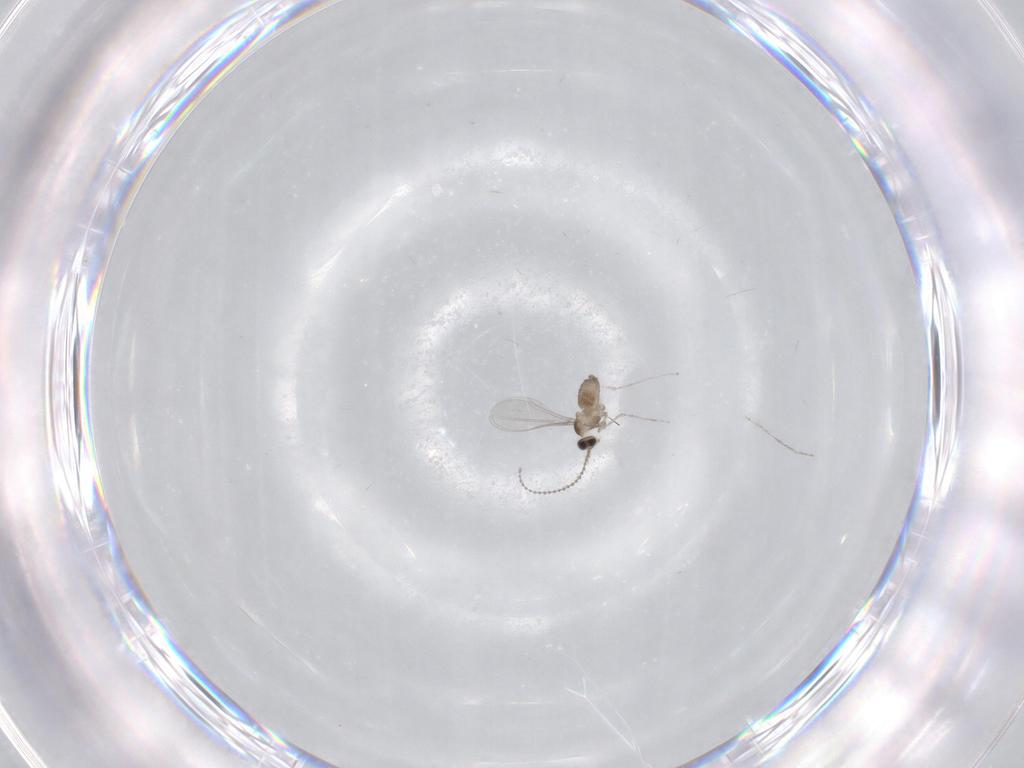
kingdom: Animalia
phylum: Arthropoda
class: Insecta
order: Diptera
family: Cecidomyiidae
